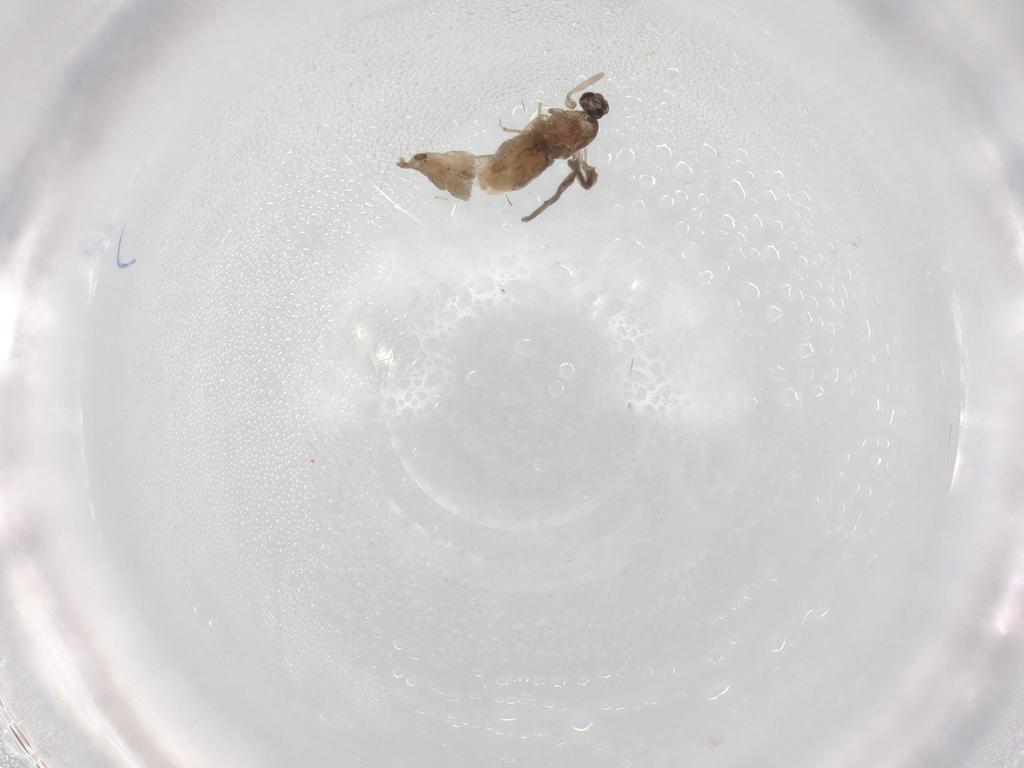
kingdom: Animalia
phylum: Arthropoda
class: Insecta
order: Diptera
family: Cecidomyiidae
